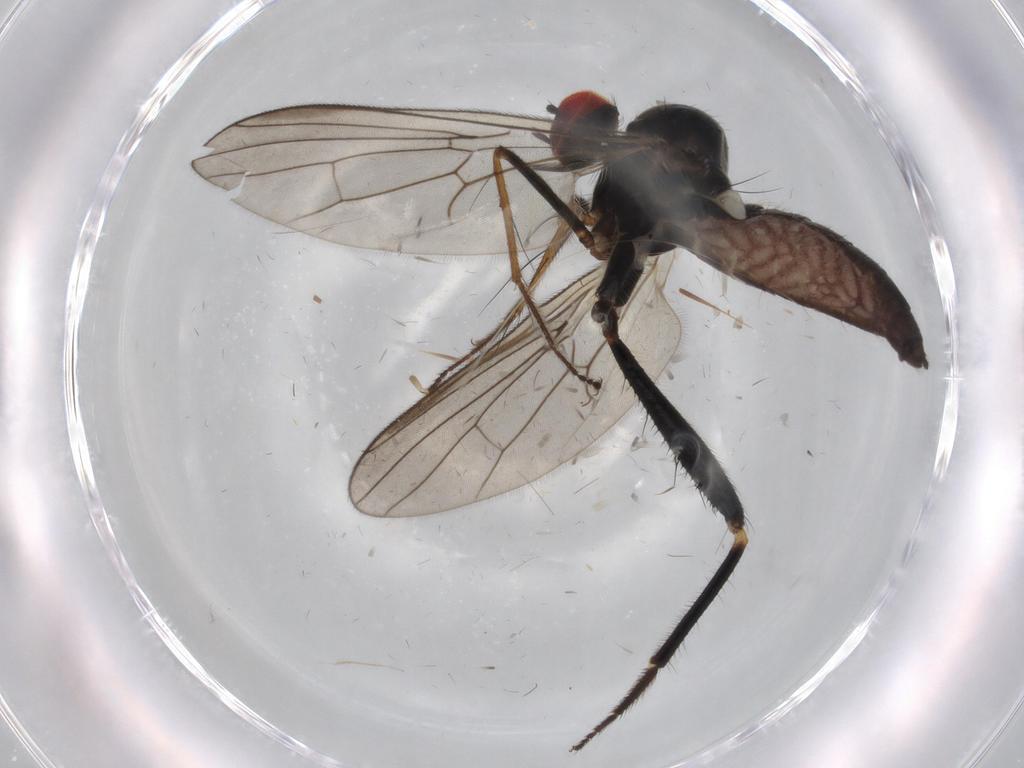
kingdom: Animalia
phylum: Arthropoda
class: Insecta
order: Diptera
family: Hybotidae
